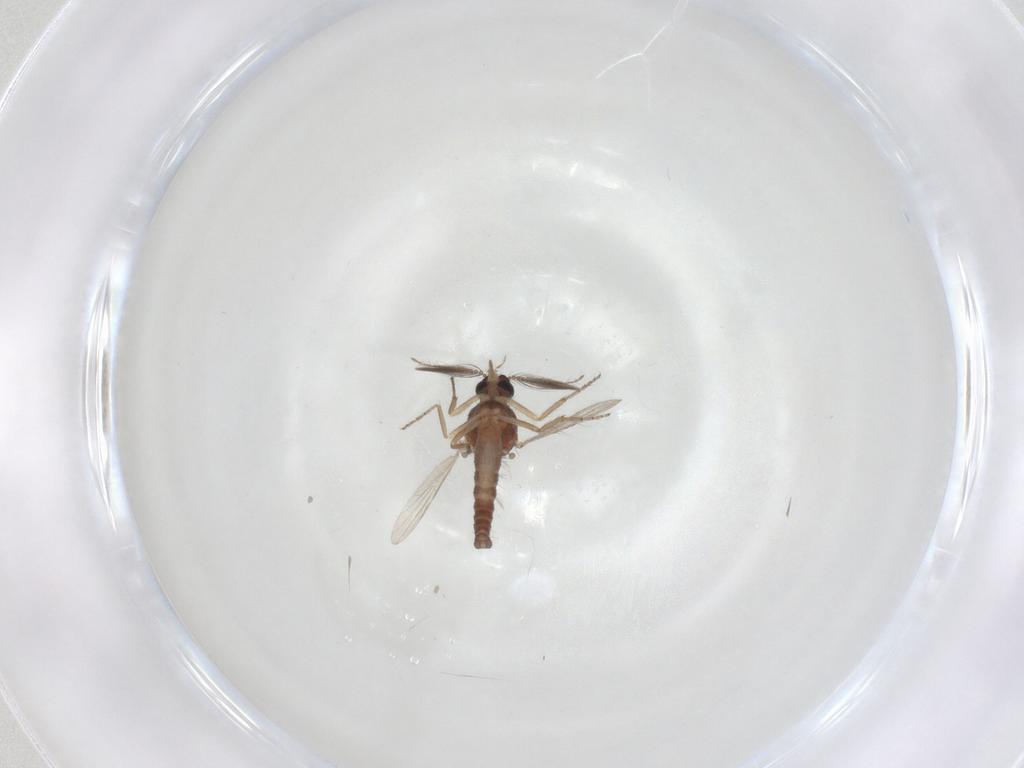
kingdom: Animalia
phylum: Arthropoda
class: Insecta
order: Diptera
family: Ceratopogonidae
